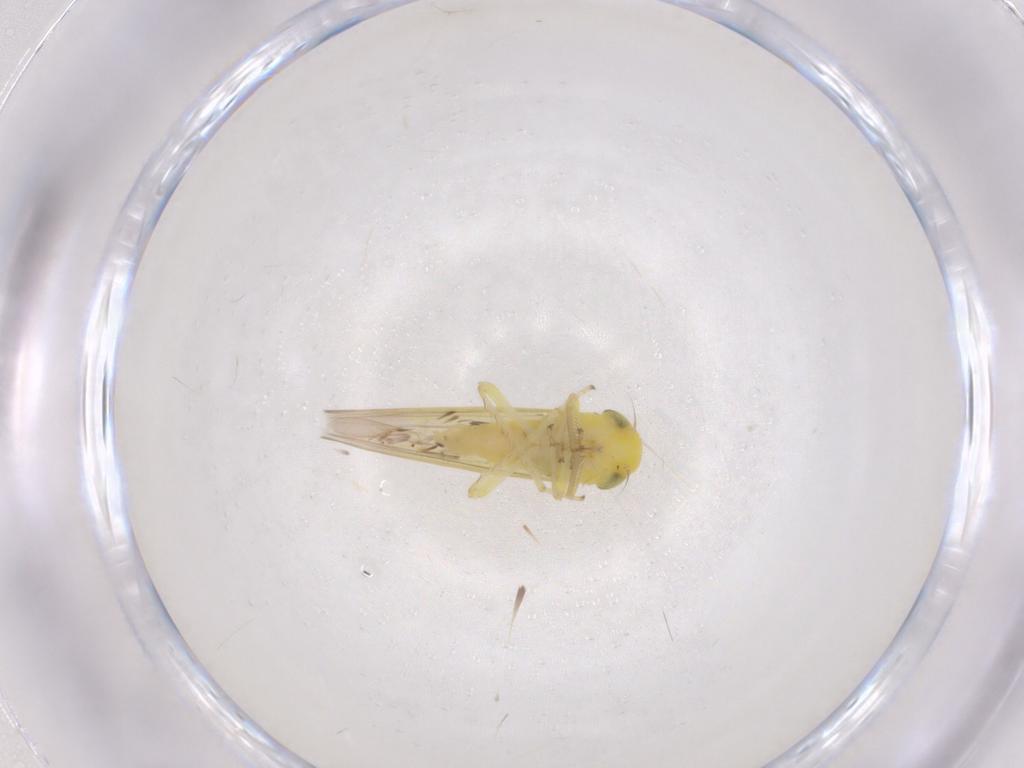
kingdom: Animalia
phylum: Arthropoda
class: Insecta
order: Hemiptera
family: Cicadellidae
